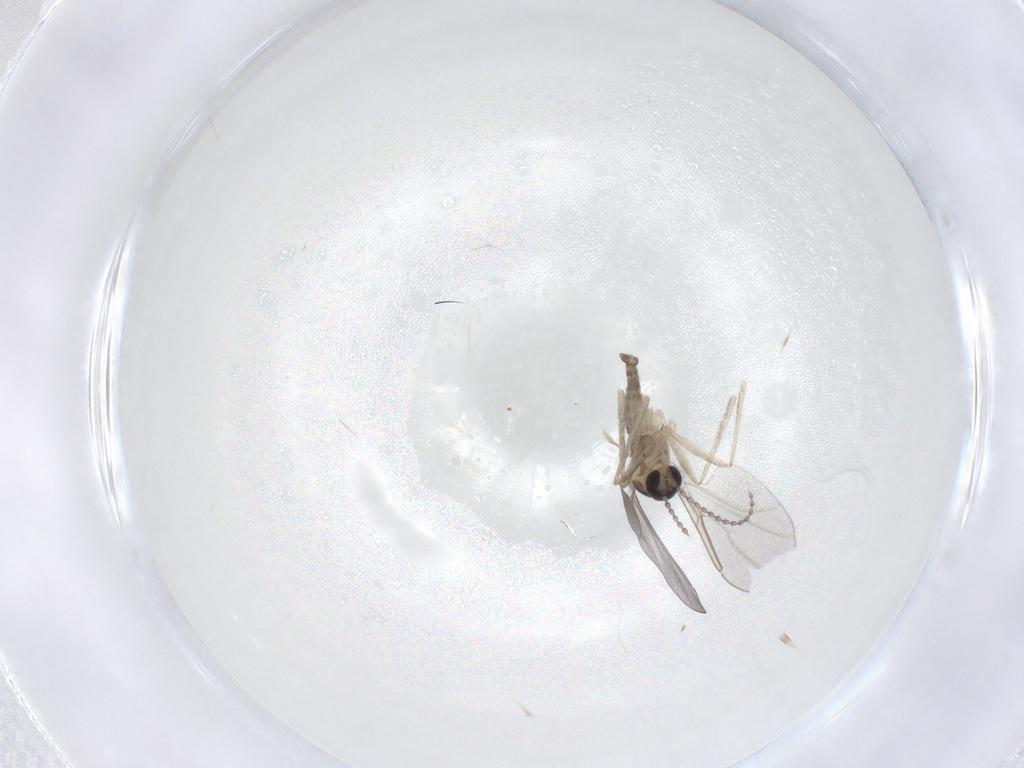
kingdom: Animalia
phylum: Arthropoda
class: Insecta
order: Diptera
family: Cecidomyiidae
